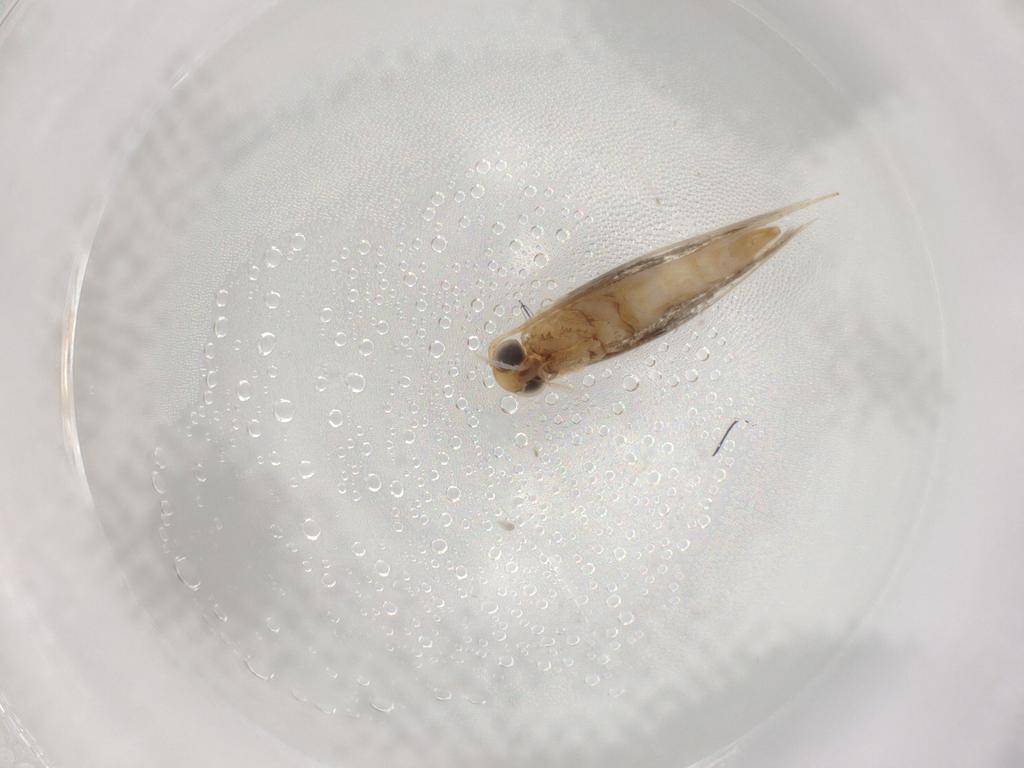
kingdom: Animalia
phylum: Arthropoda
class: Insecta
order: Lepidoptera
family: Gracillariidae
